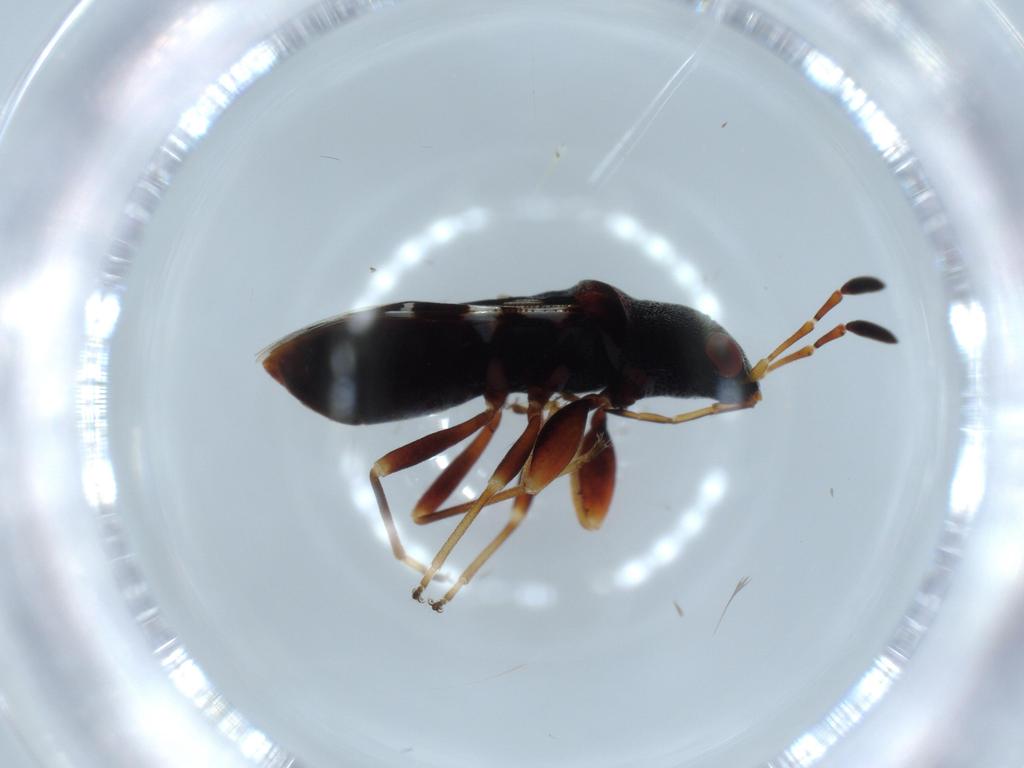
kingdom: Animalia
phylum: Arthropoda
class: Insecta
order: Hemiptera
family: Rhyparochromidae
